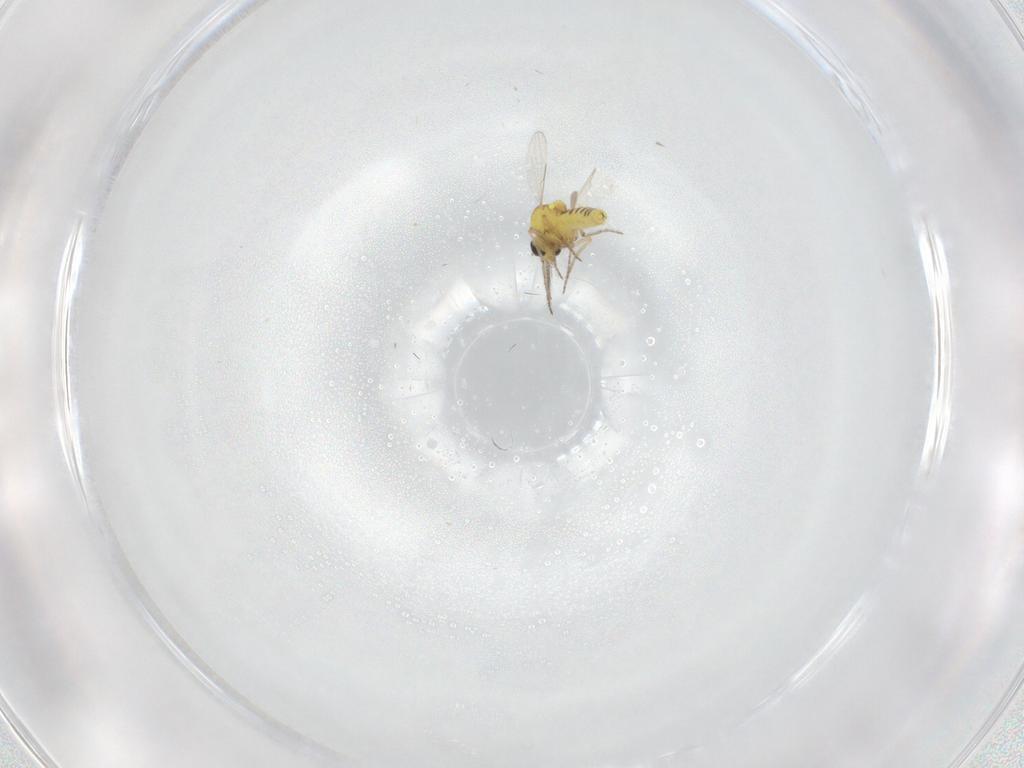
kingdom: Animalia
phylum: Arthropoda
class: Insecta
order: Diptera
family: Ceratopogonidae
